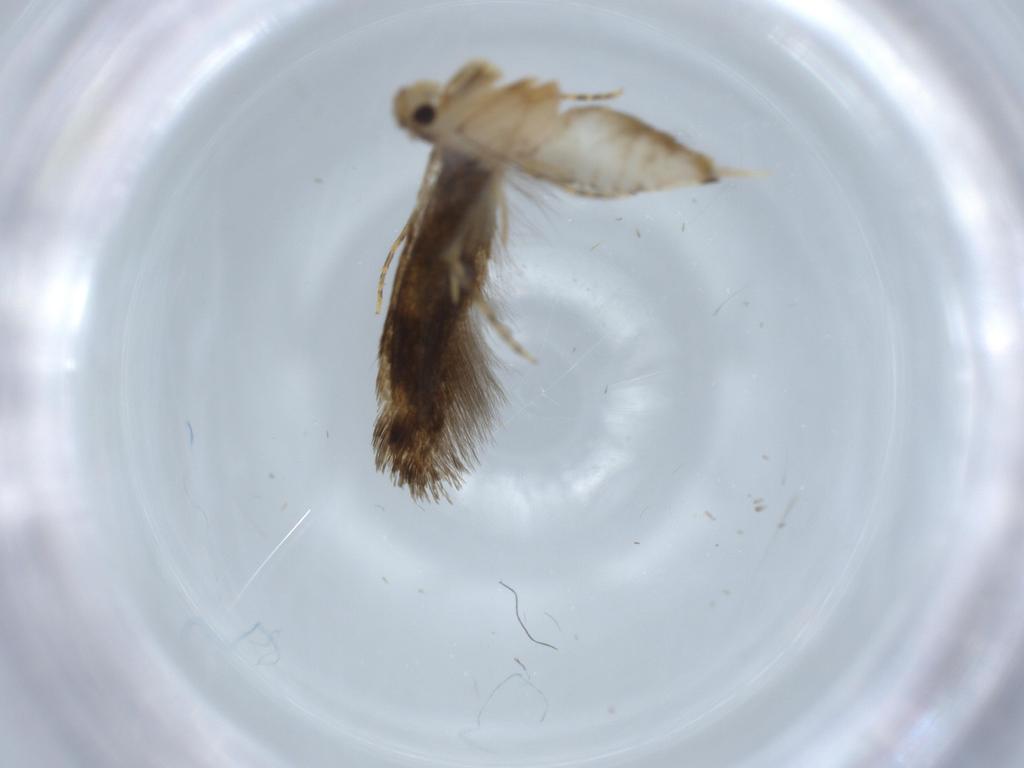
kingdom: Animalia
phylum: Arthropoda
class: Insecta
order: Lepidoptera
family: Tineidae
